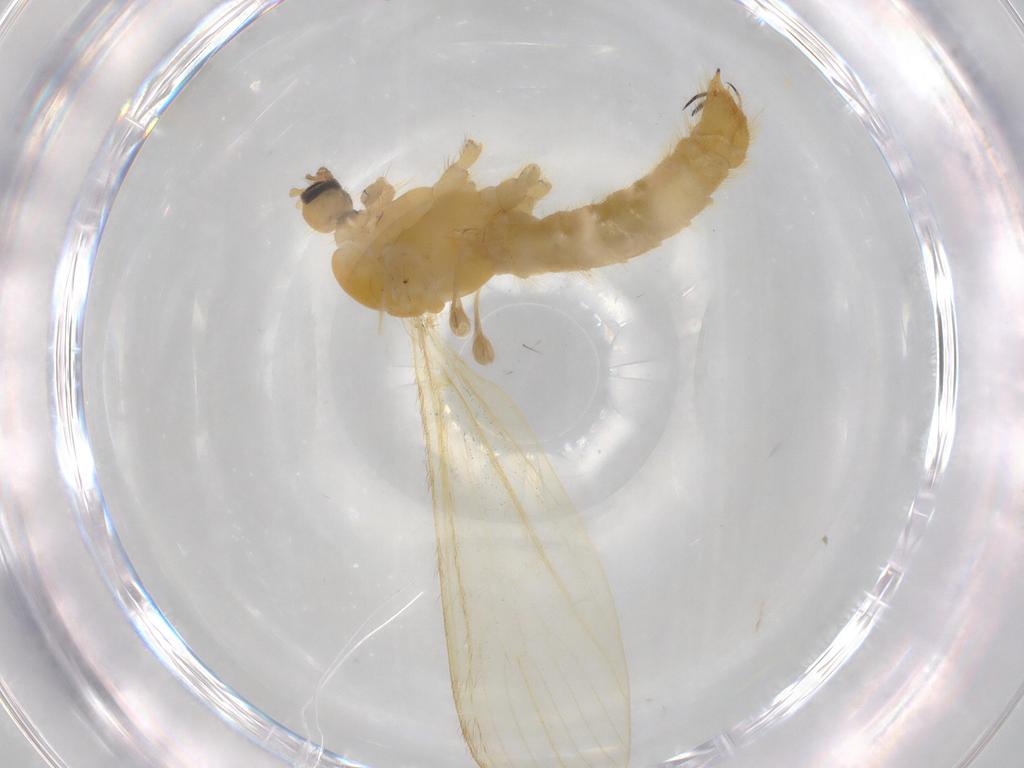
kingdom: Animalia
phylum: Arthropoda
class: Insecta
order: Diptera
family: Limoniidae
